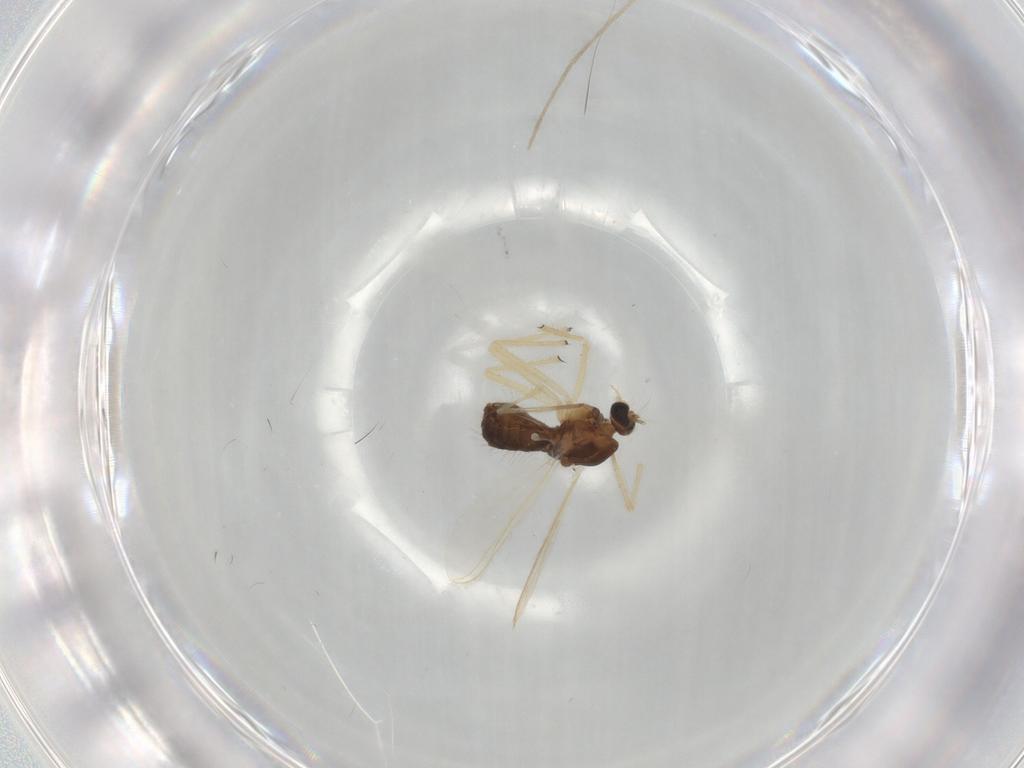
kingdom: Animalia
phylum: Arthropoda
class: Insecta
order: Diptera
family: Chironomidae
